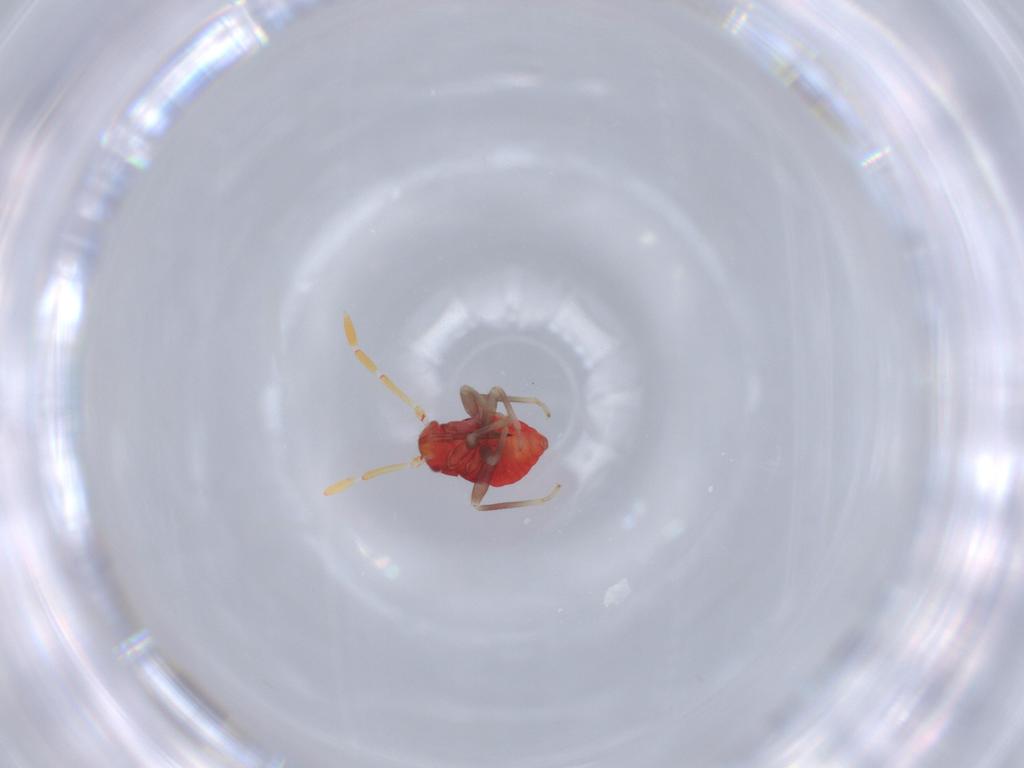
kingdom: Animalia
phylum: Arthropoda
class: Insecta
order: Hemiptera
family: Miridae
